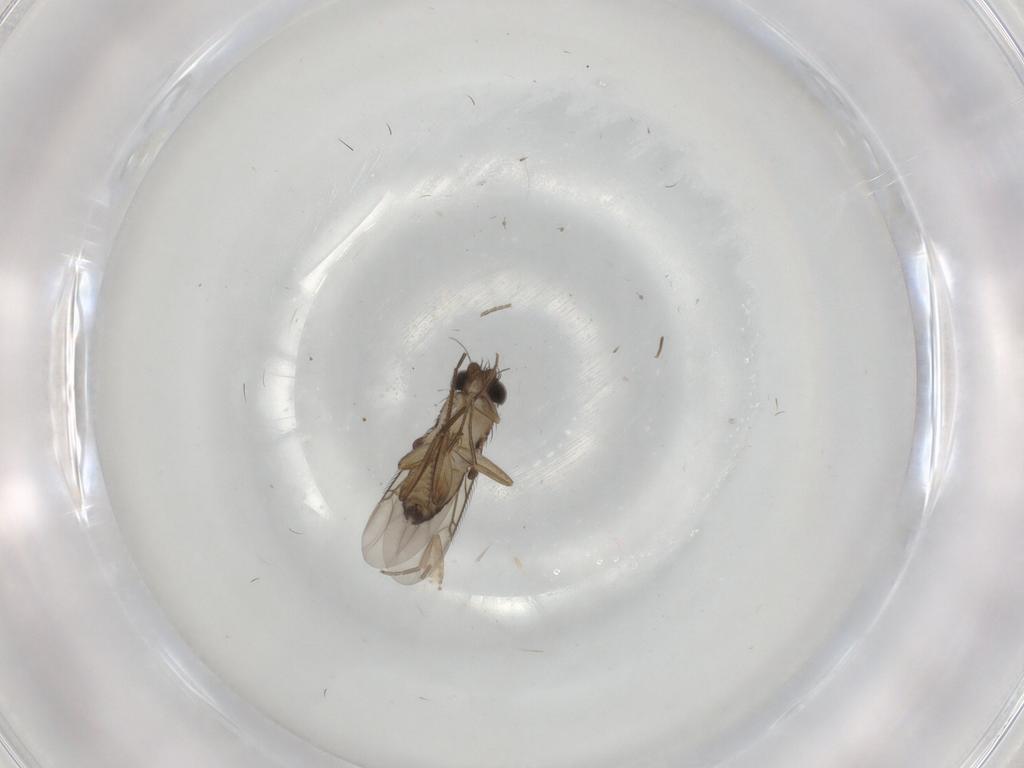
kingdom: Animalia
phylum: Arthropoda
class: Insecta
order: Diptera
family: Phoridae
